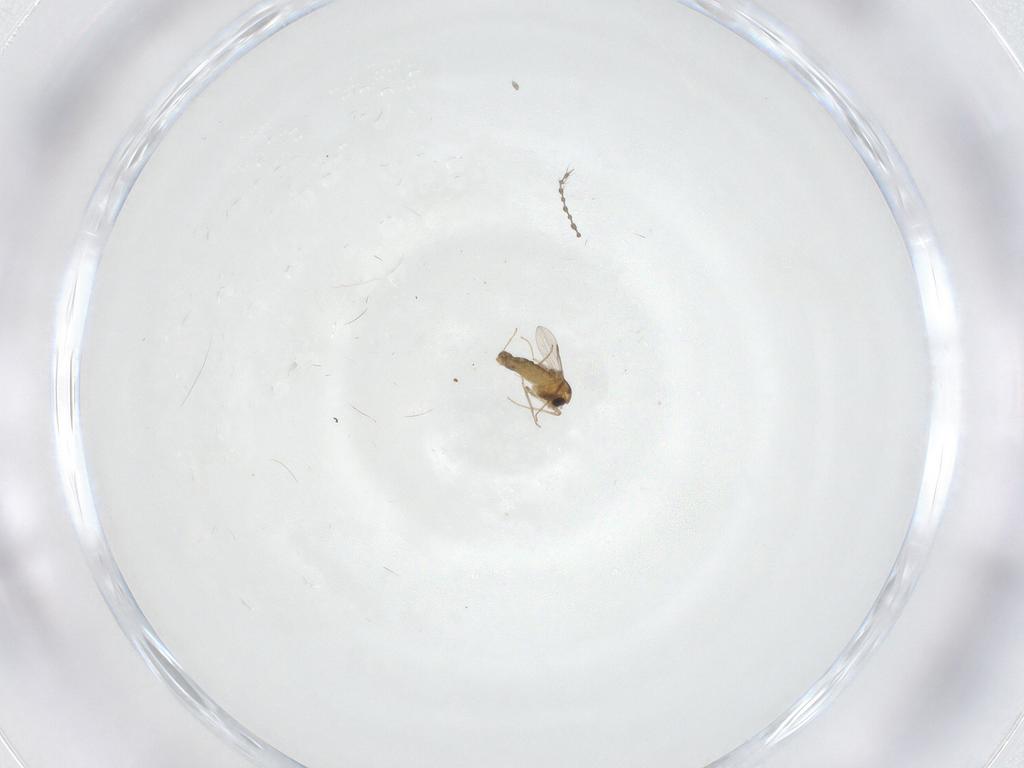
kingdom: Animalia
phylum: Arthropoda
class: Insecta
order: Diptera
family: Chironomidae
